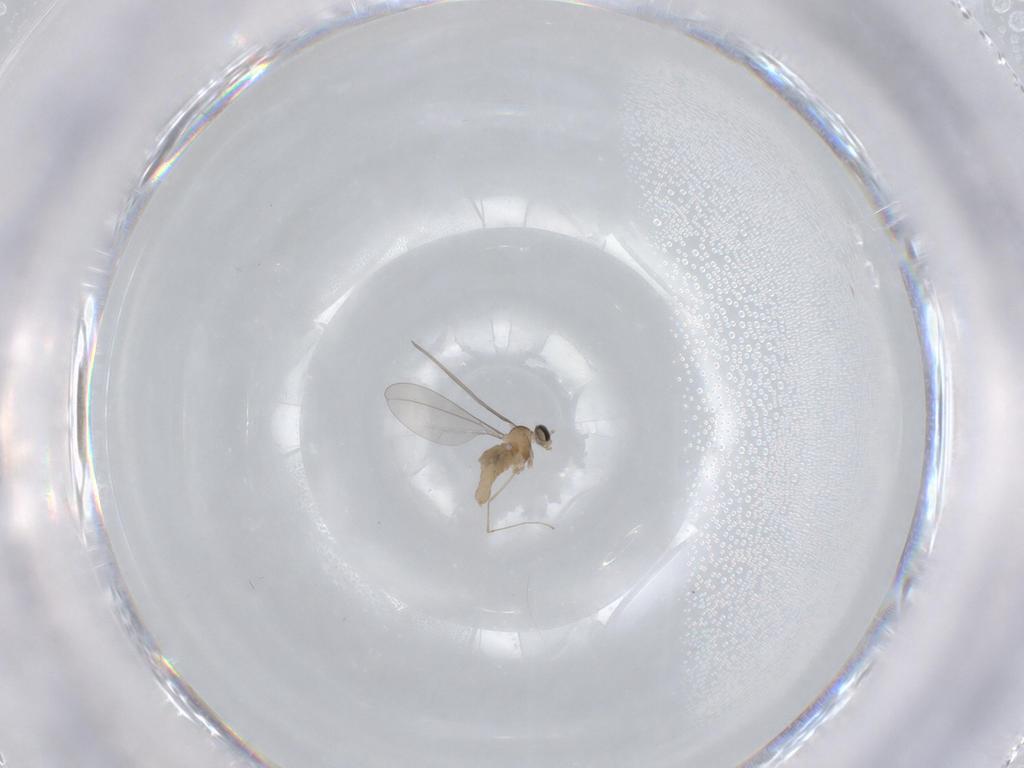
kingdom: Animalia
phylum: Arthropoda
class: Insecta
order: Diptera
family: Cecidomyiidae
